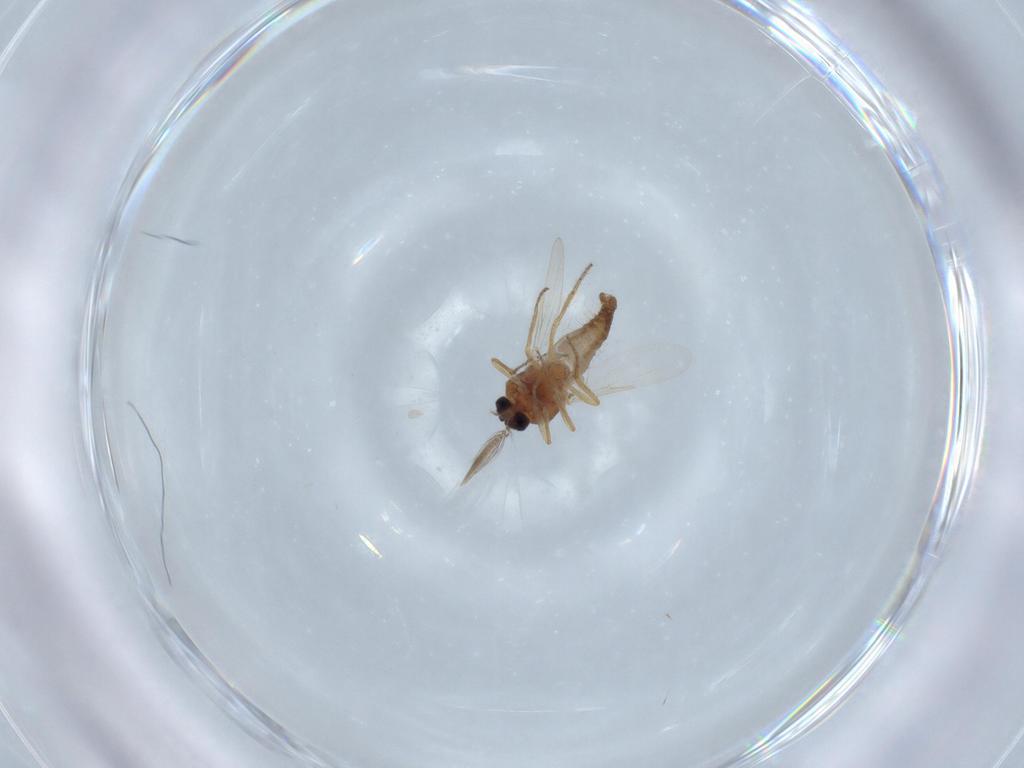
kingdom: Animalia
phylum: Arthropoda
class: Insecta
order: Diptera
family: Ceratopogonidae
